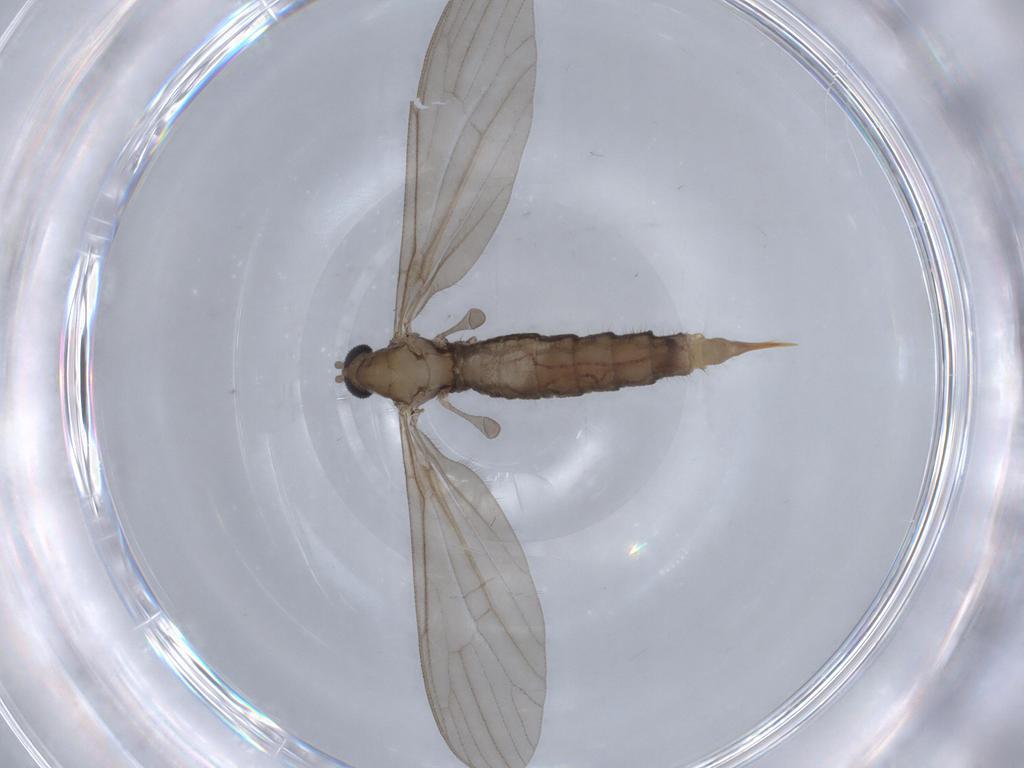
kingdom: Animalia
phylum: Arthropoda
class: Insecta
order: Diptera
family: Limoniidae
